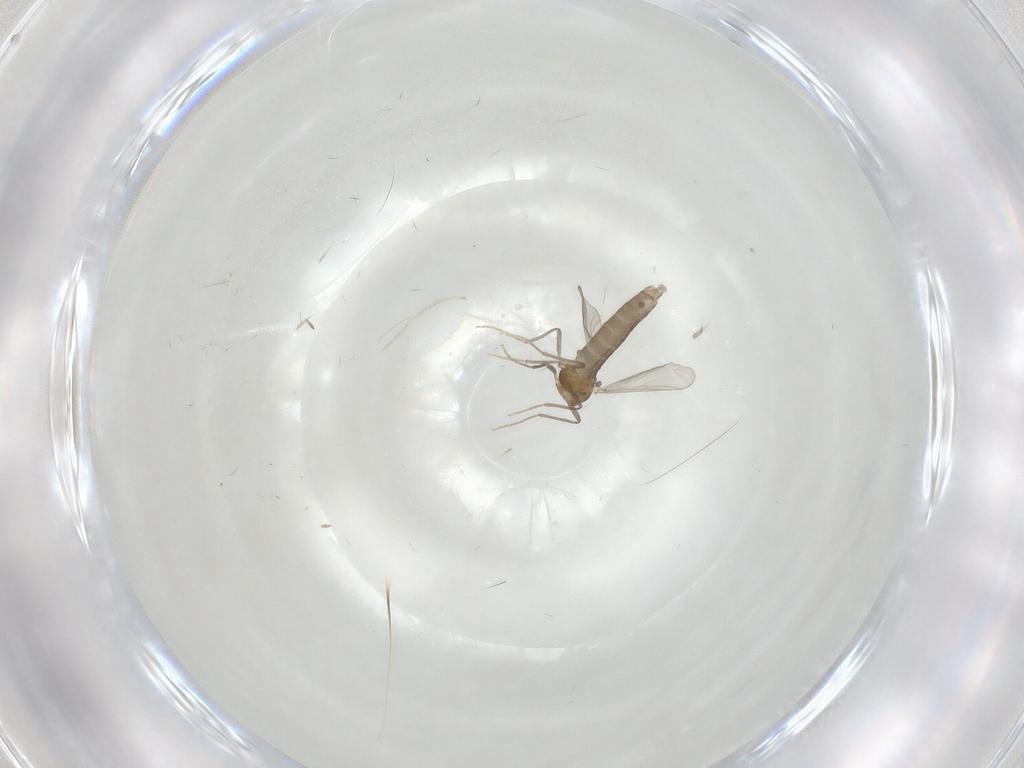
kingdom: Animalia
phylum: Arthropoda
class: Insecta
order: Diptera
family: Chironomidae
